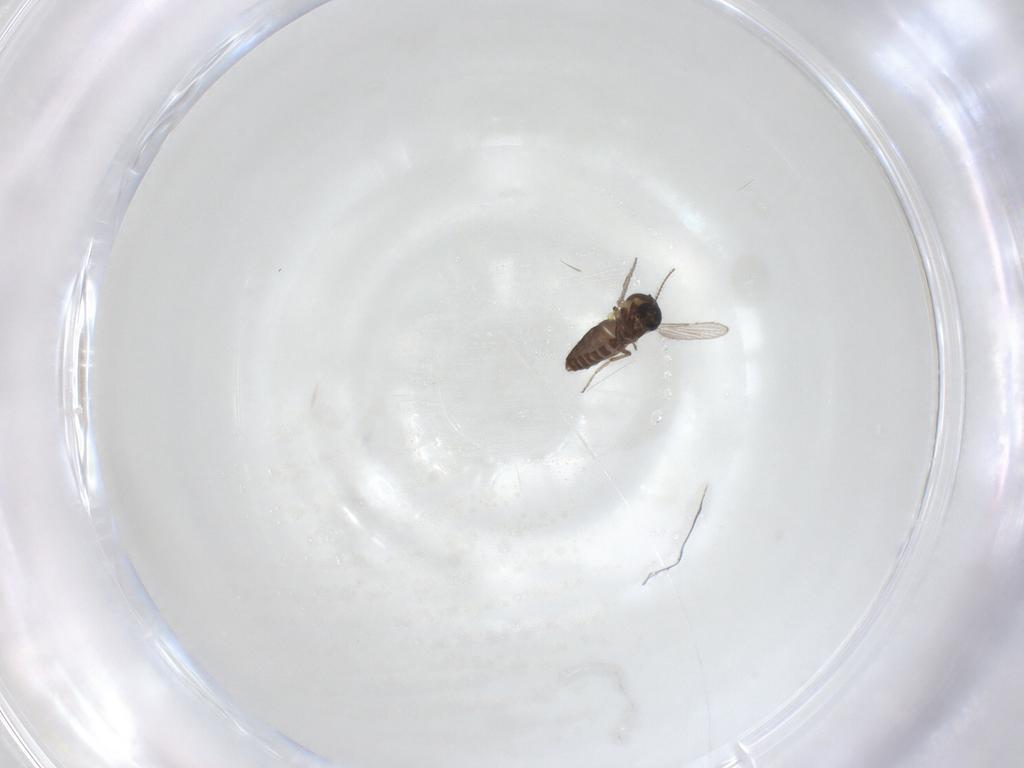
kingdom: Animalia
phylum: Arthropoda
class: Insecta
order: Diptera
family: Ceratopogonidae
